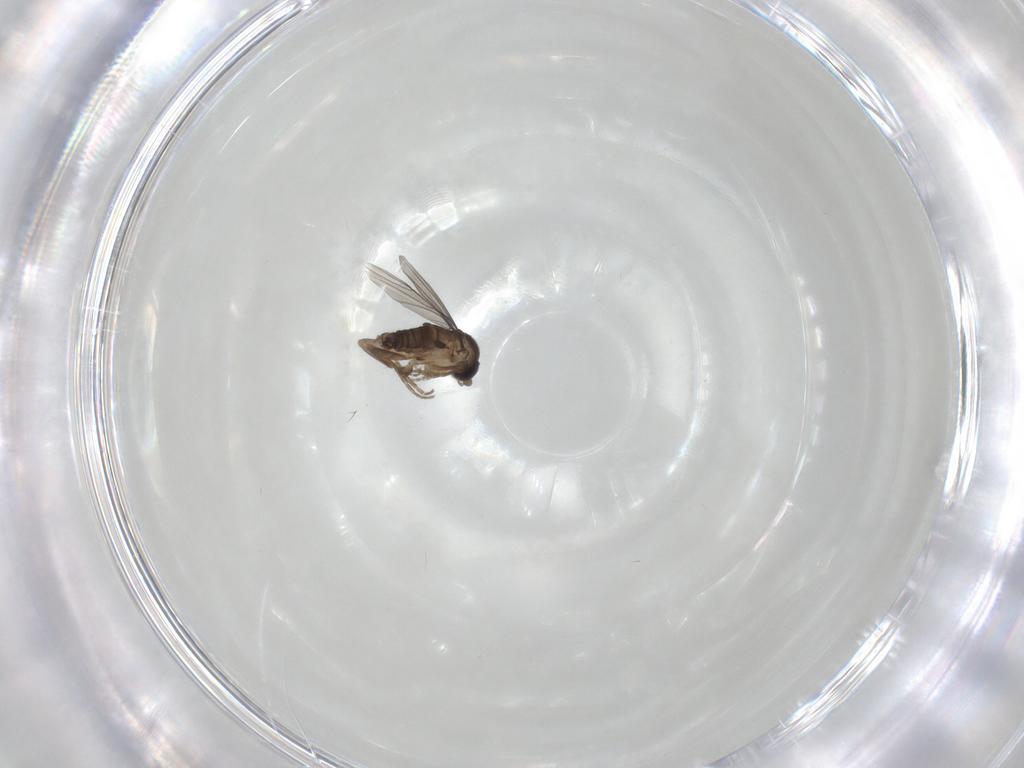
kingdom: Animalia
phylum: Arthropoda
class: Insecta
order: Diptera
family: Phoridae
